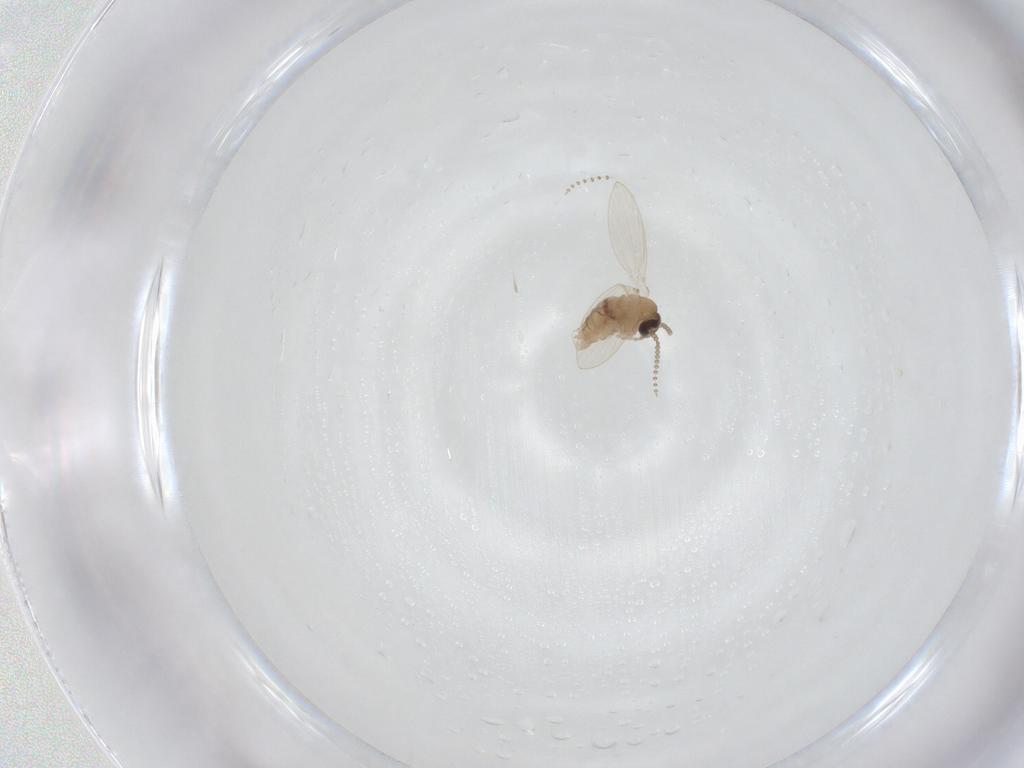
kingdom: Animalia
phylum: Arthropoda
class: Insecta
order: Diptera
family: Psychodidae
